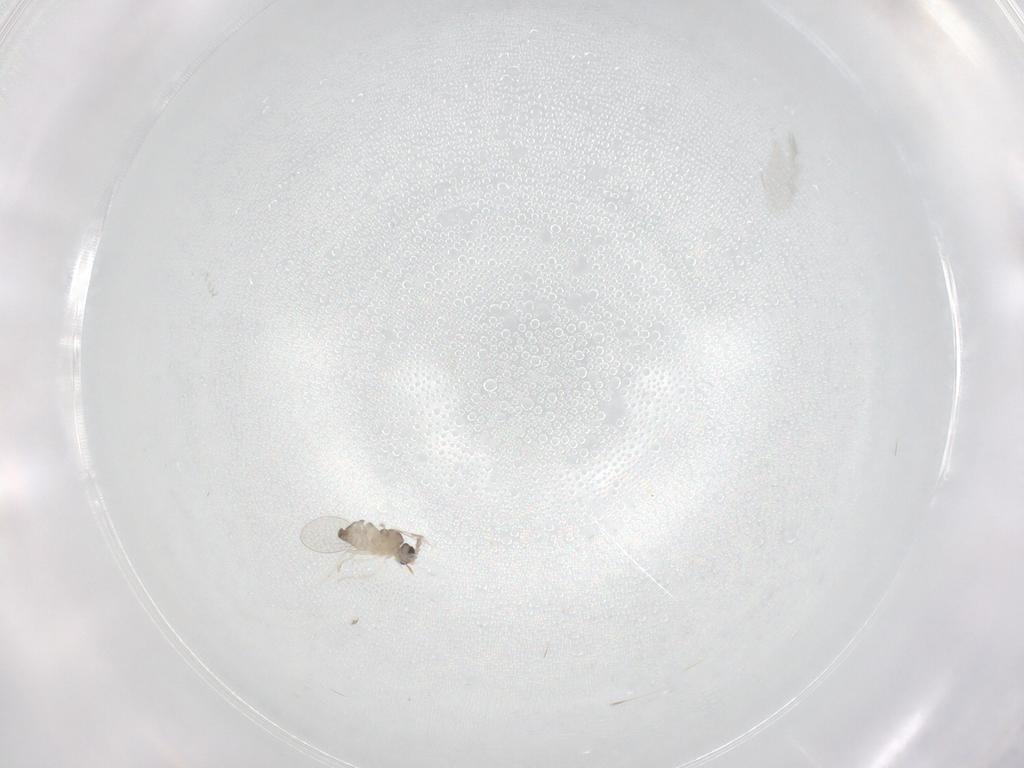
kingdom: Animalia
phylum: Arthropoda
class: Insecta
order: Diptera
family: Cecidomyiidae
